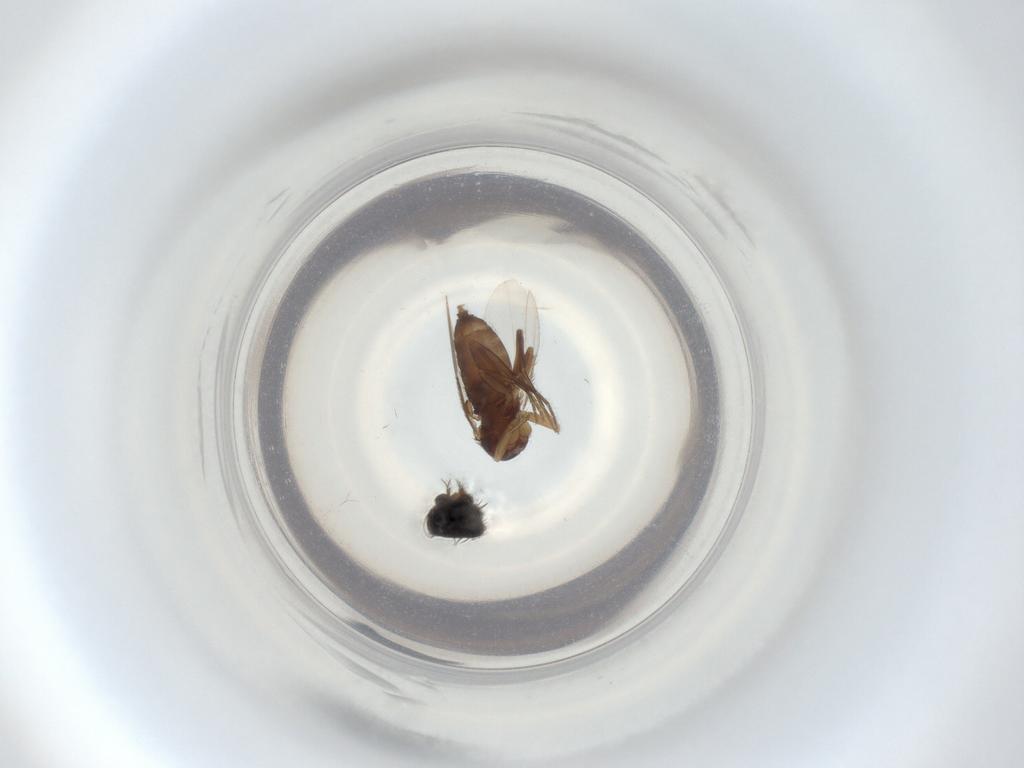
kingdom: Animalia
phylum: Arthropoda
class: Insecta
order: Diptera
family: Phoridae
